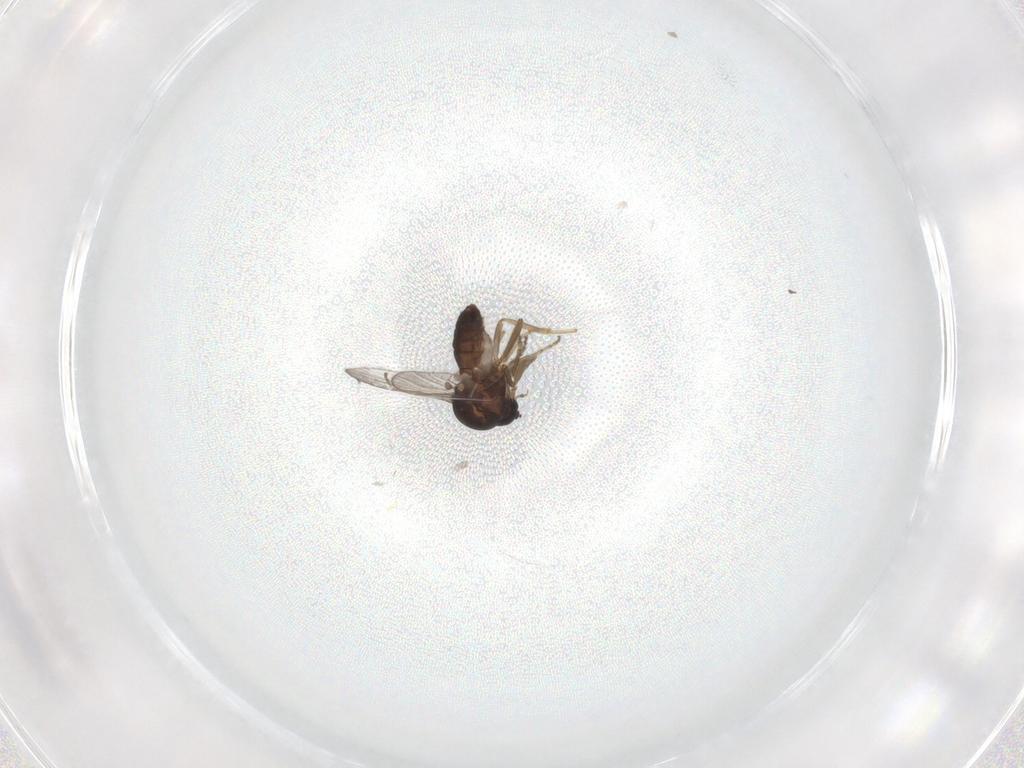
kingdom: Animalia
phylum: Arthropoda
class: Insecta
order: Diptera
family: Ceratopogonidae
